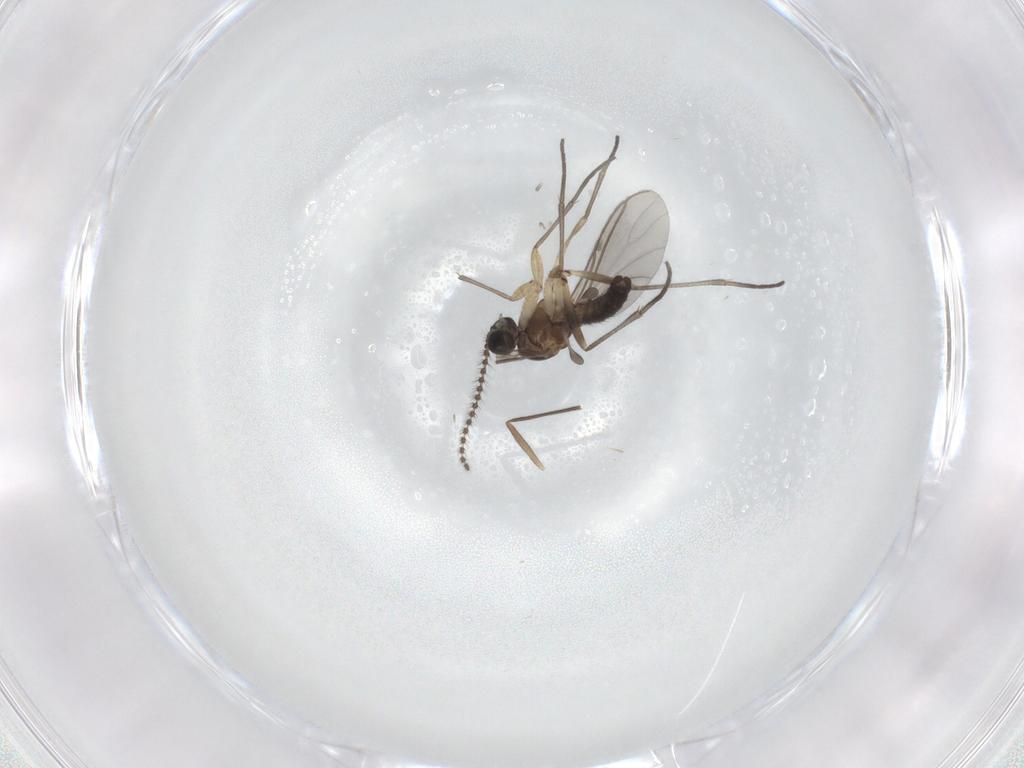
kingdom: Animalia
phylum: Arthropoda
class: Insecta
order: Diptera
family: Sciaridae
